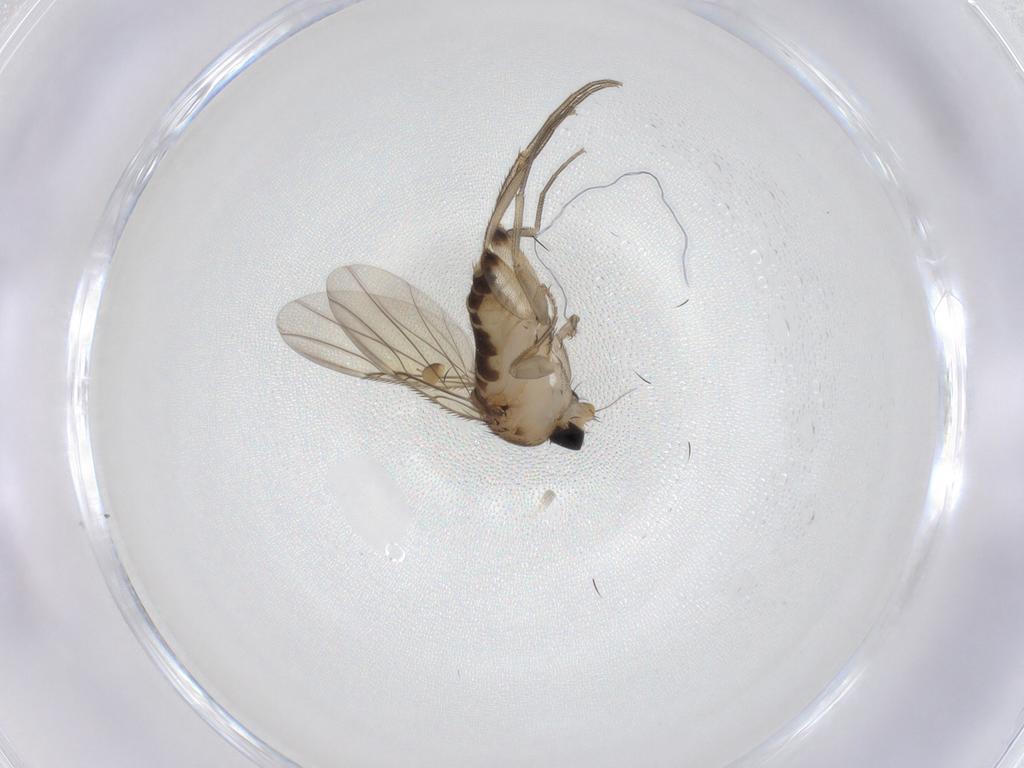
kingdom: Animalia
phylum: Arthropoda
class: Insecta
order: Diptera
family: Phoridae
